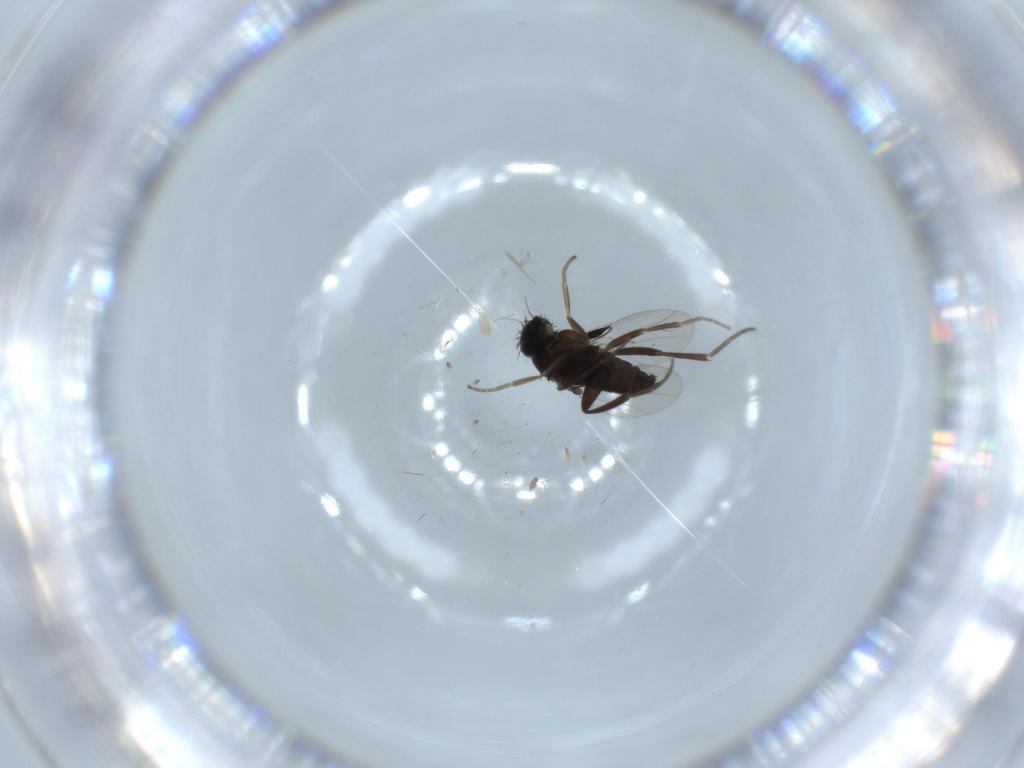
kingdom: Animalia
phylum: Arthropoda
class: Insecta
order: Diptera
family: Phoridae
